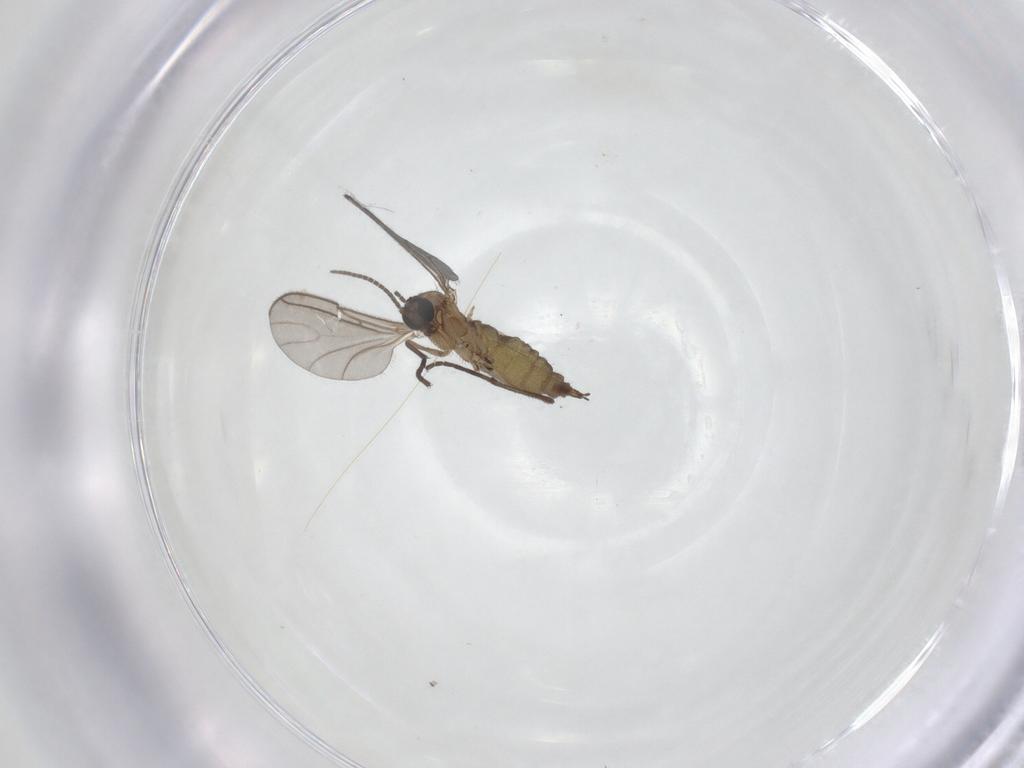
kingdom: Animalia
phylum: Arthropoda
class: Insecta
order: Diptera
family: Sciaridae
